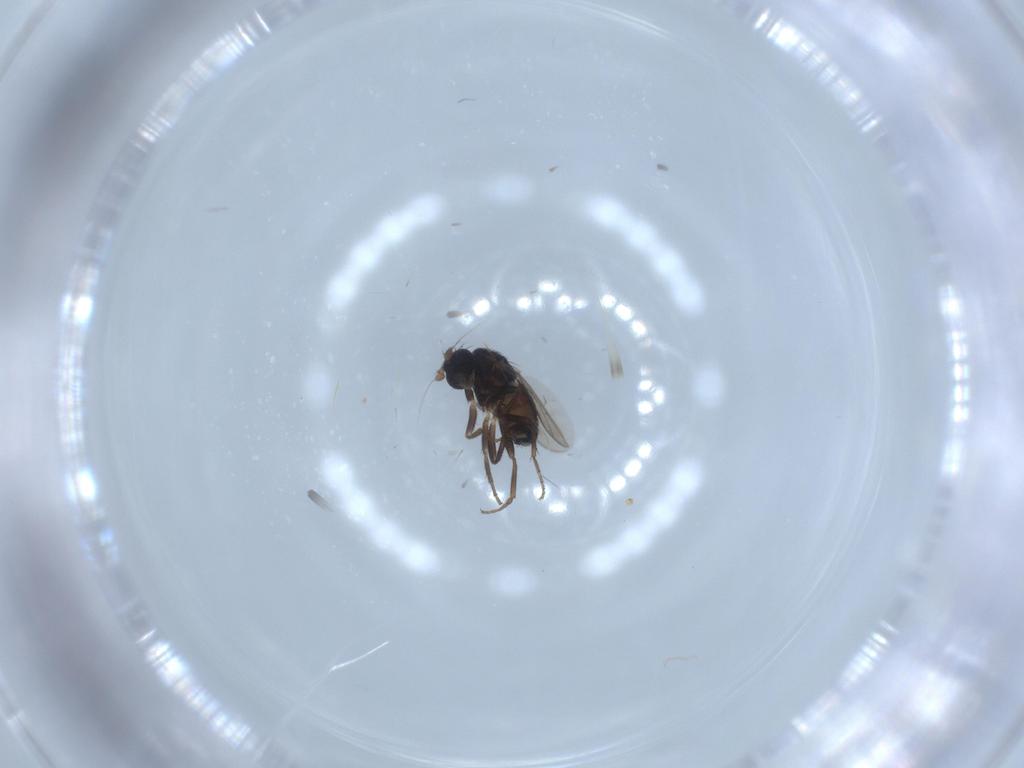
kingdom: Animalia
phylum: Arthropoda
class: Insecta
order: Diptera
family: Sphaeroceridae
